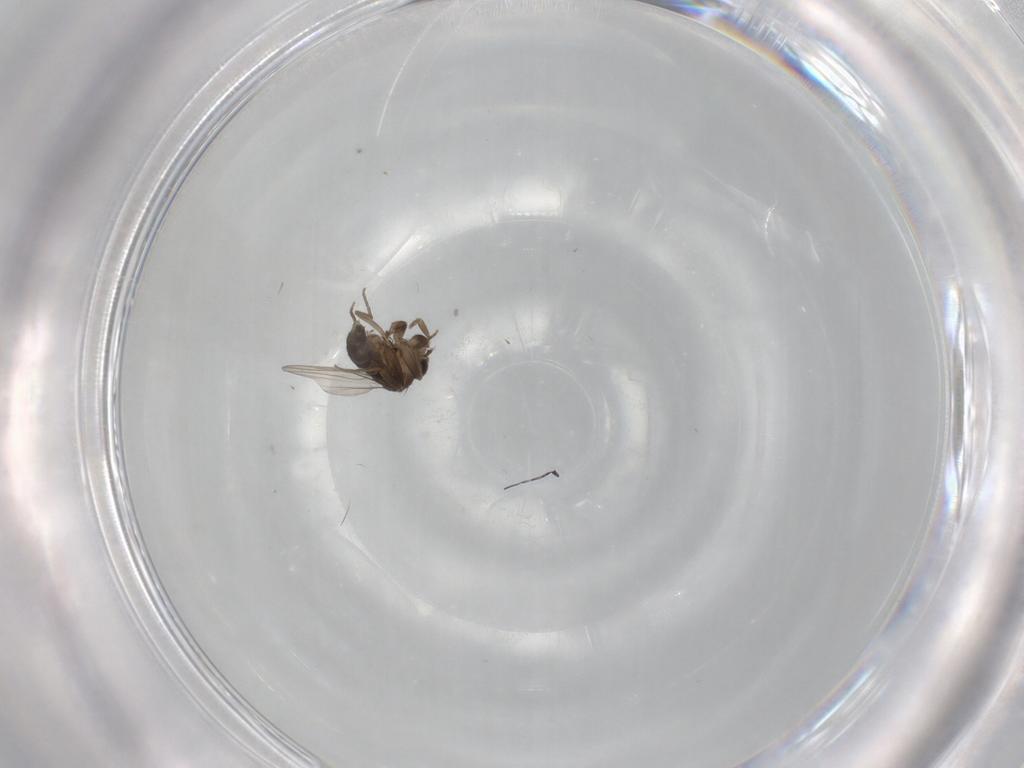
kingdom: Animalia
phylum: Arthropoda
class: Insecta
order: Diptera
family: Phoridae
